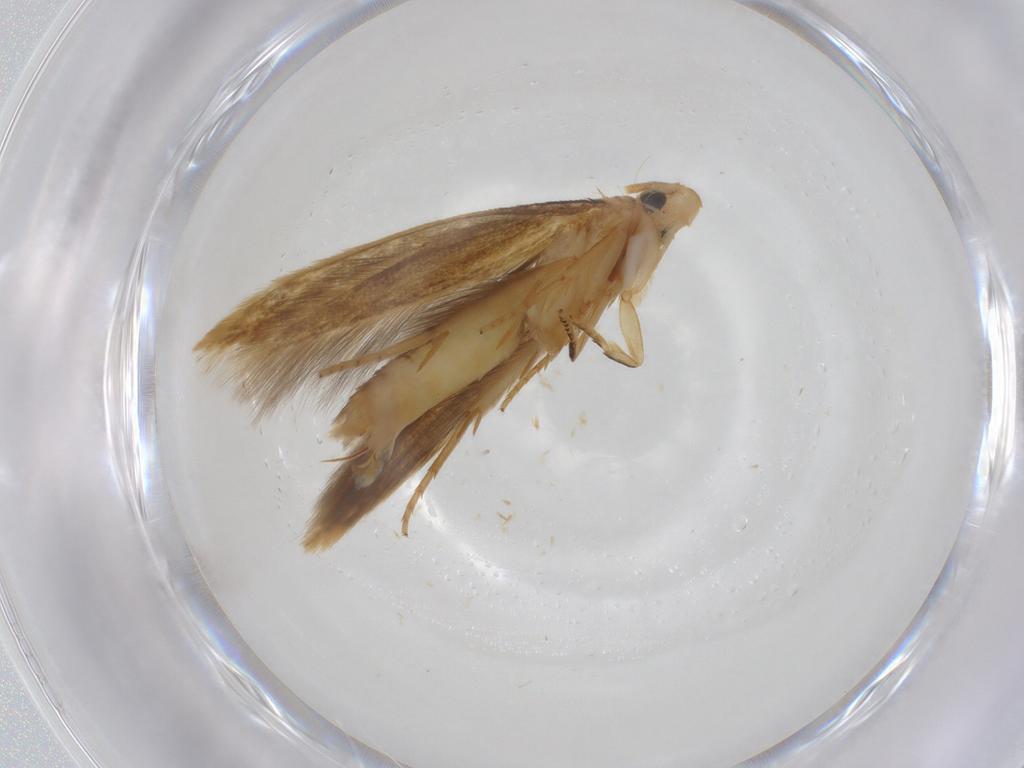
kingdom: Animalia
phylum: Arthropoda
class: Insecta
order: Lepidoptera
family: Tineidae
